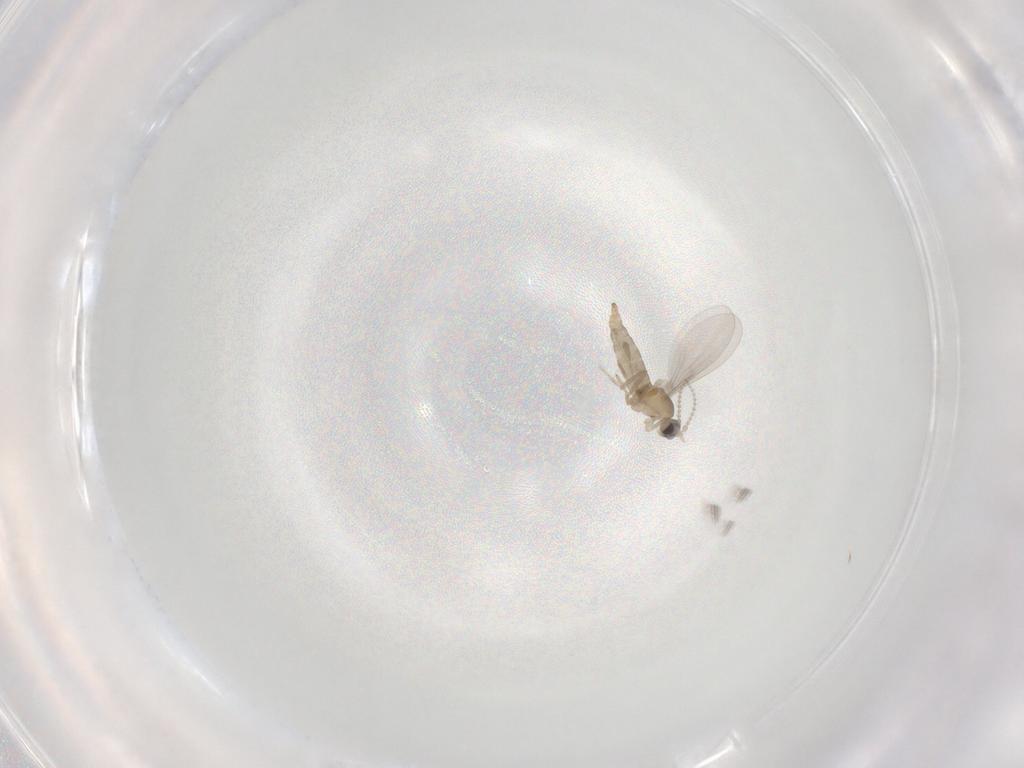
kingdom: Animalia
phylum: Arthropoda
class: Insecta
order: Diptera
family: Cecidomyiidae
